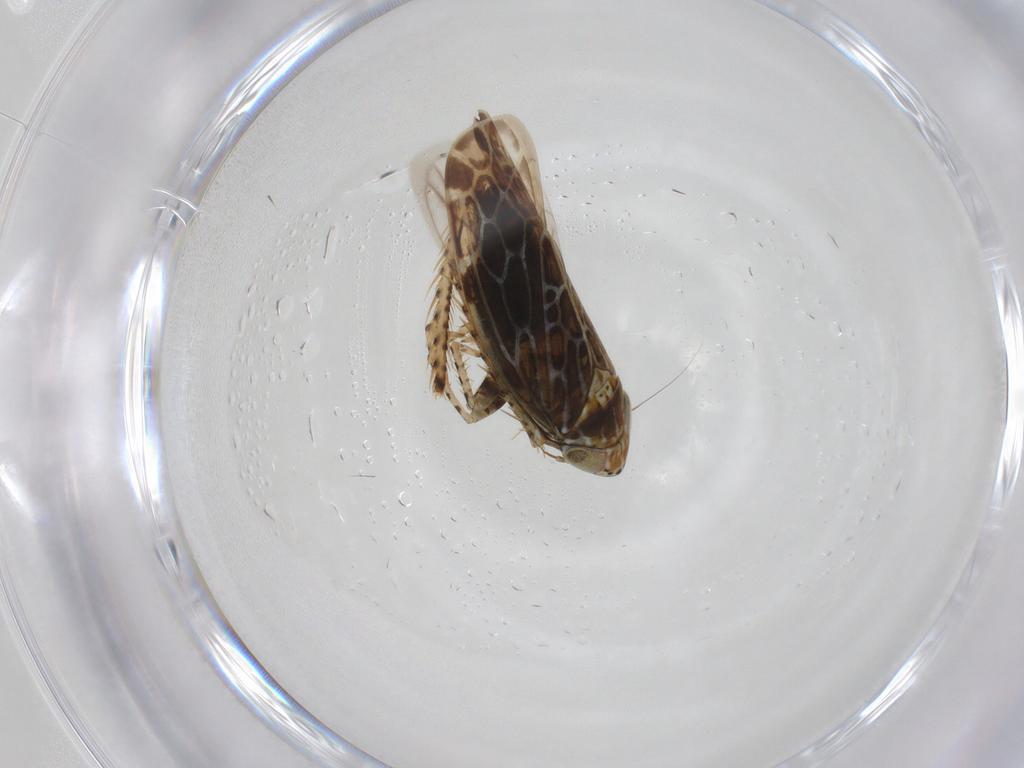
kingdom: Animalia
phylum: Arthropoda
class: Insecta
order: Hemiptera
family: Cicadellidae
